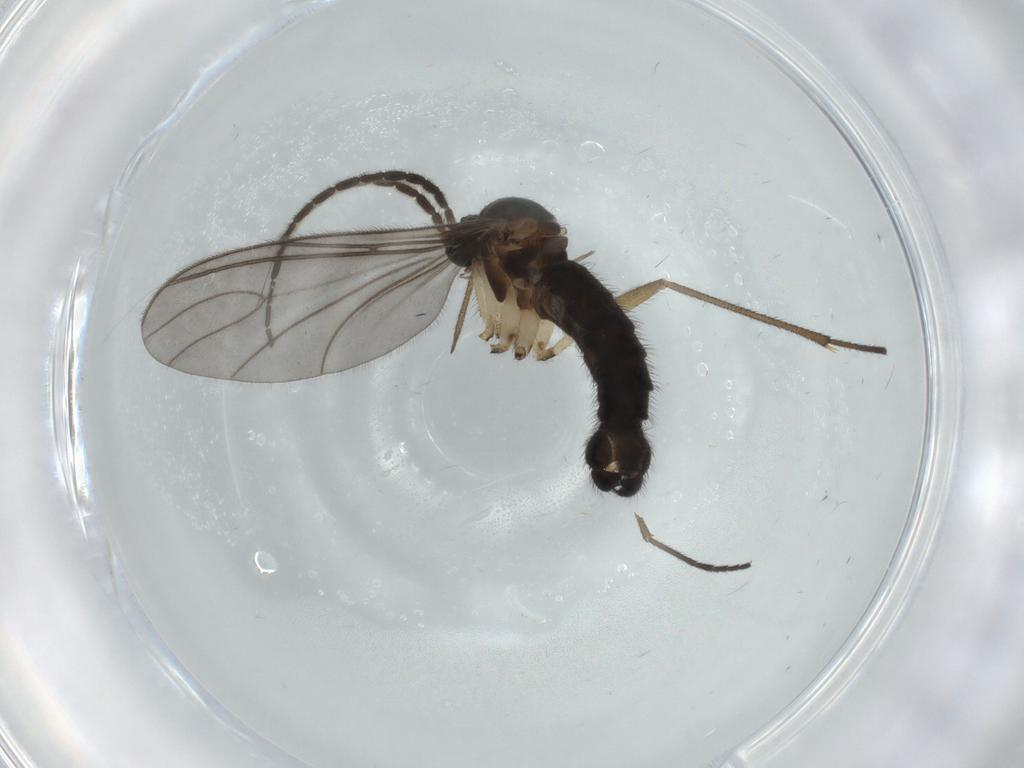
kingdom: Animalia
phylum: Arthropoda
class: Insecta
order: Diptera
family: Sciaridae
